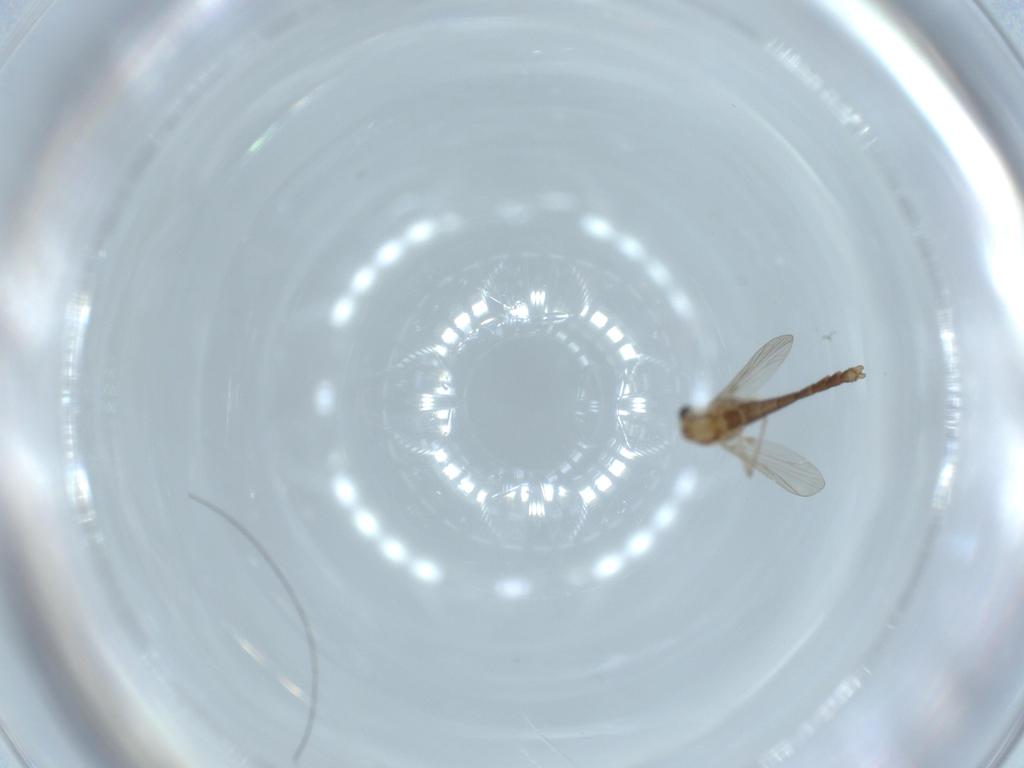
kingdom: Animalia
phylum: Arthropoda
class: Insecta
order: Diptera
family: Chironomidae
